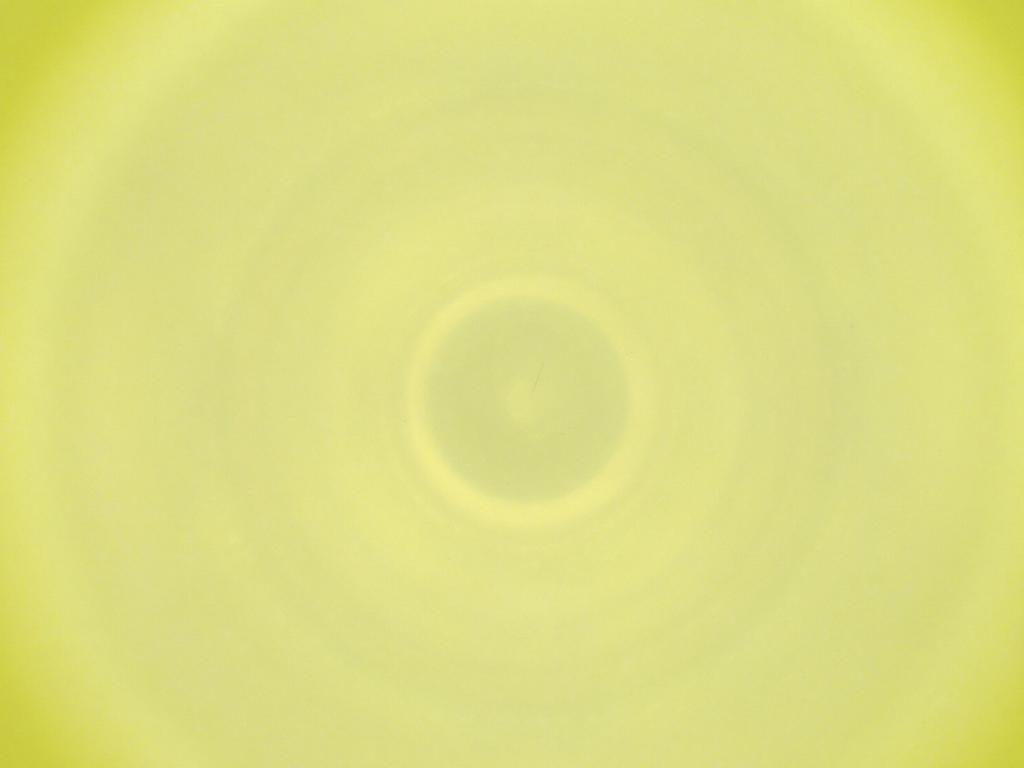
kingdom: Animalia
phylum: Arthropoda
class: Insecta
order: Diptera
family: Cecidomyiidae
